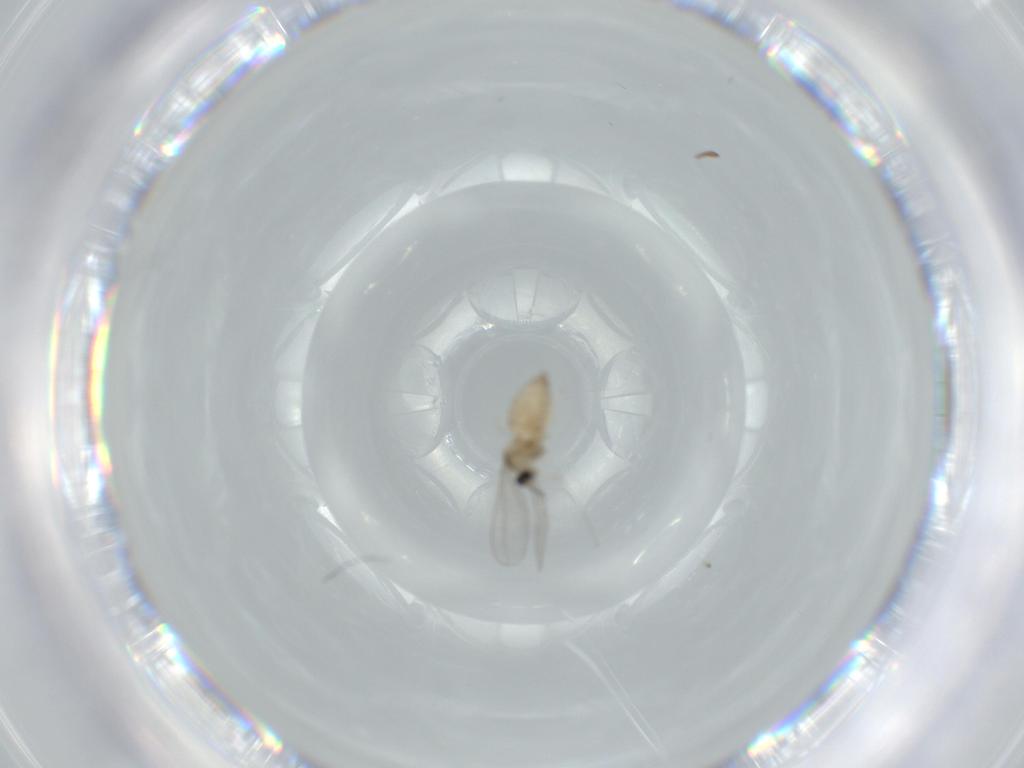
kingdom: Animalia
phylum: Arthropoda
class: Insecta
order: Diptera
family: Cecidomyiidae
